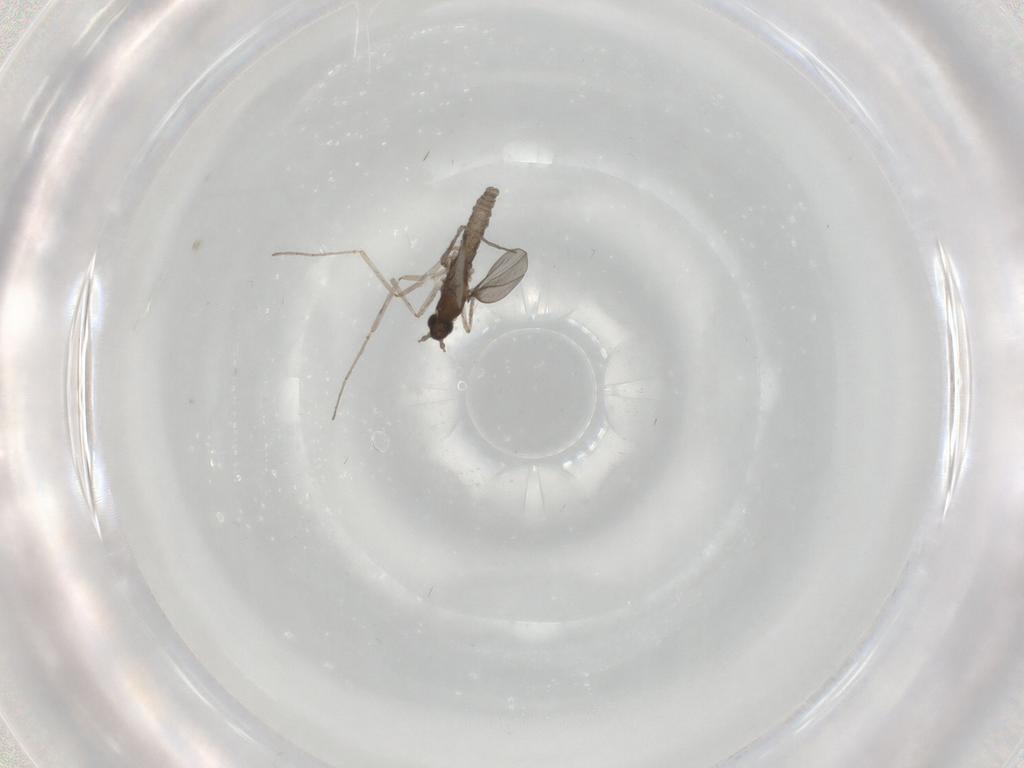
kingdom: Animalia
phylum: Arthropoda
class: Insecta
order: Diptera
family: Cecidomyiidae
